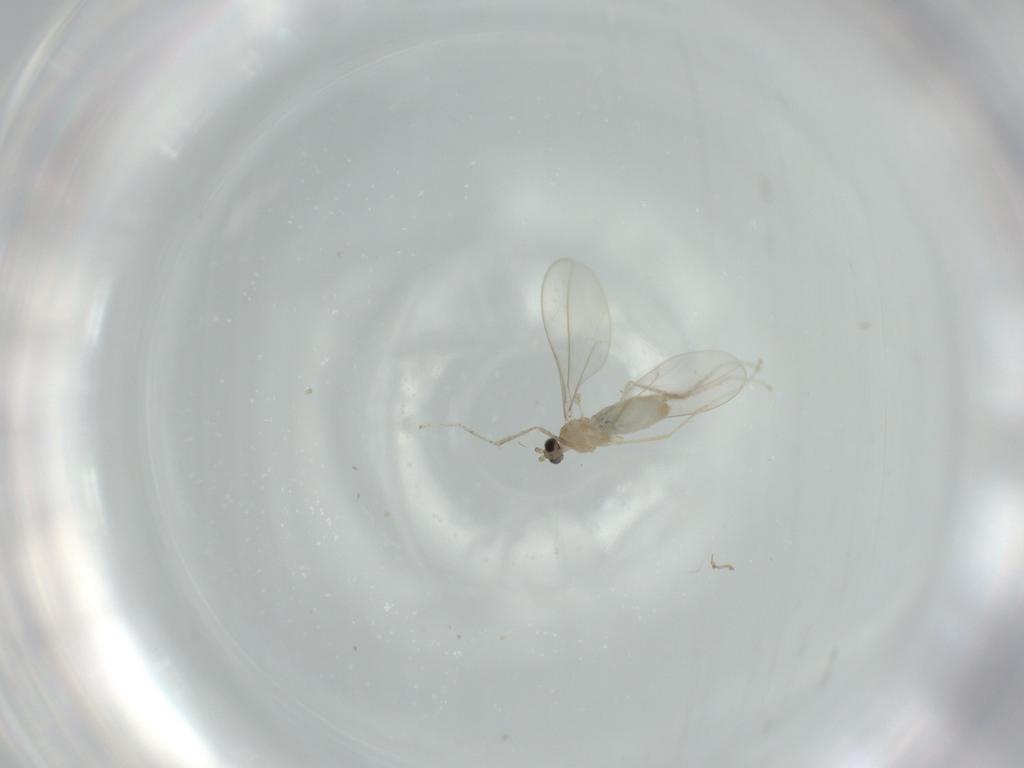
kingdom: Animalia
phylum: Arthropoda
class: Insecta
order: Diptera
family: Cecidomyiidae
